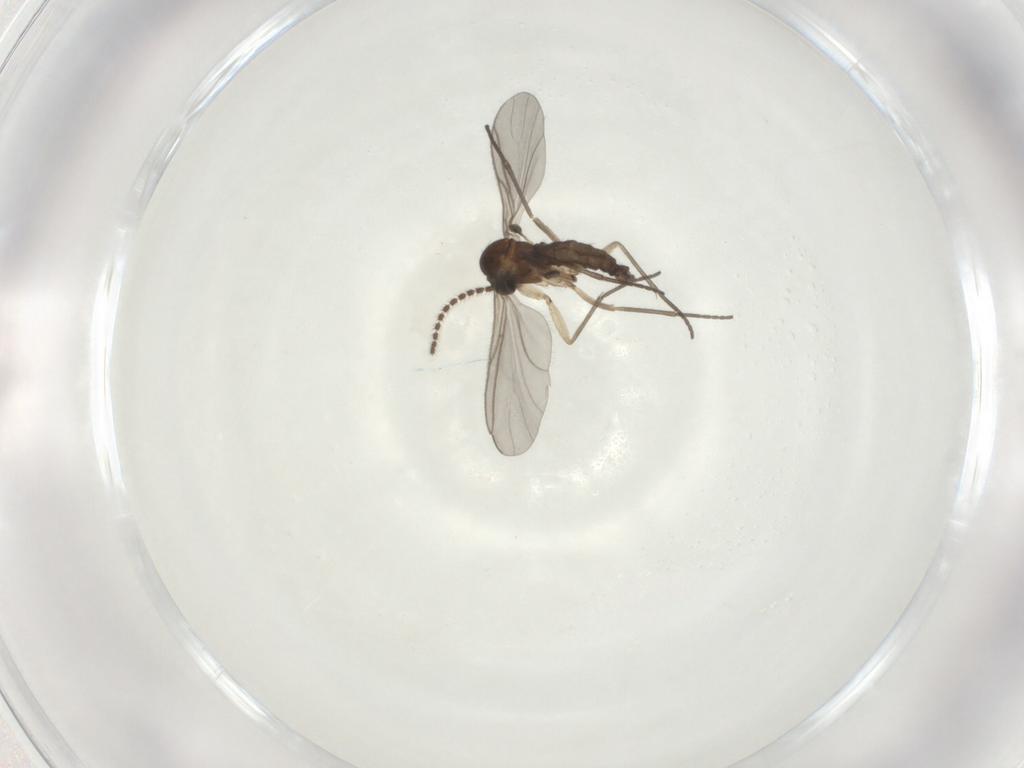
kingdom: Animalia
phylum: Arthropoda
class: Insecta
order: Diptera
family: Sciaridae
